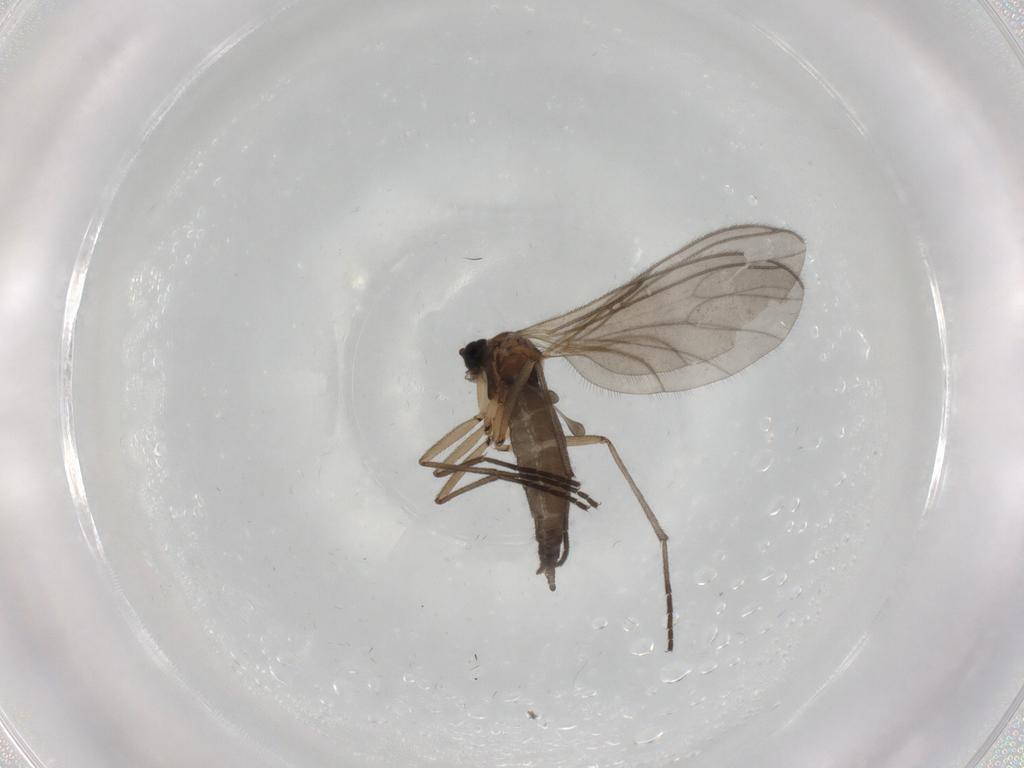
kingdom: Animalia
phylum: Arthropoda
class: Insecta
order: Diptera
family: Sciaridae
